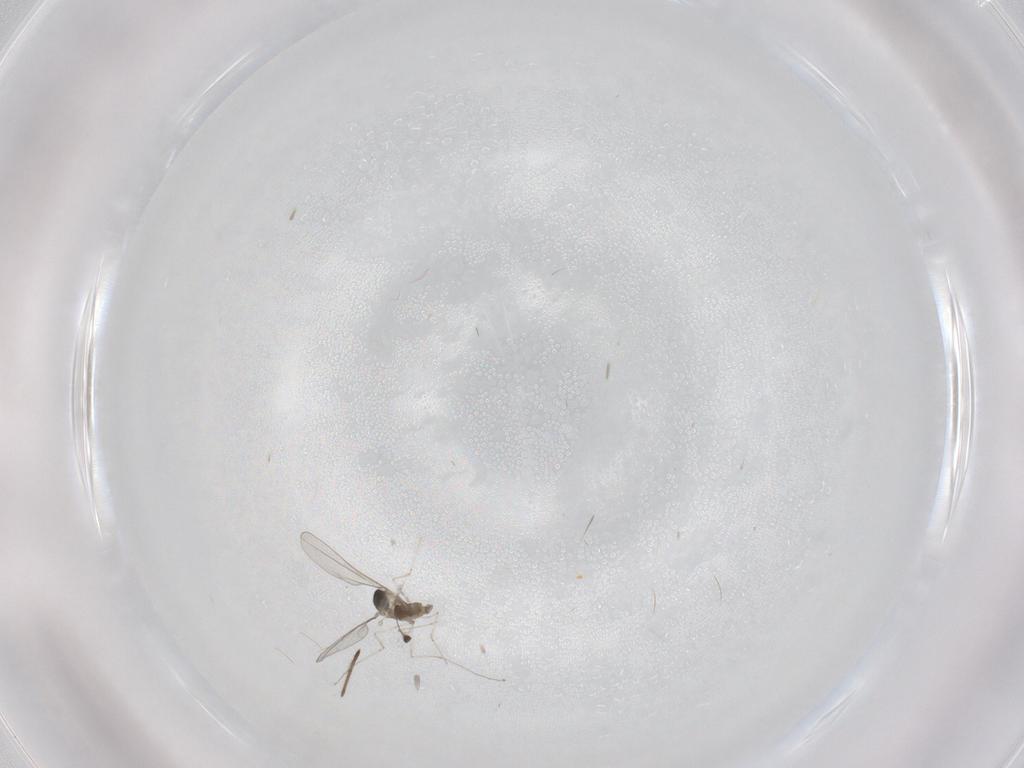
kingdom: Animalia
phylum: Arthropoda
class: Insecta
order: Diptera
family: Cecidomyiidae
